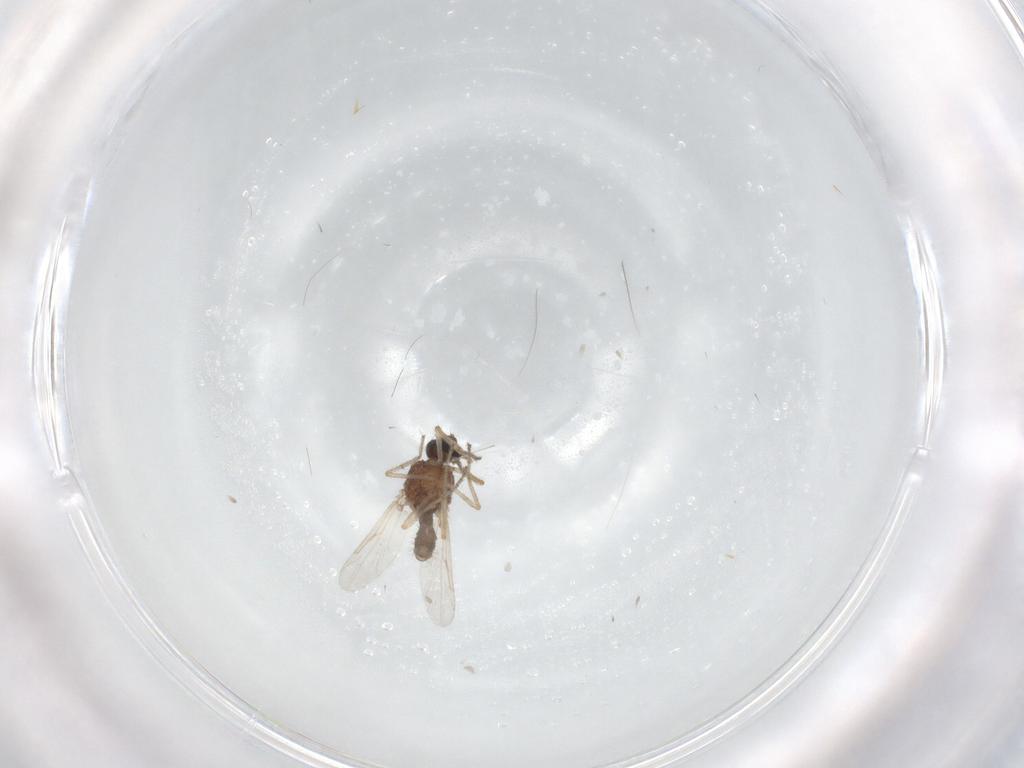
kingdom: Animalia
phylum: Arthropoda
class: Insecta
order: Diptera
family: Ceratopogonidae
